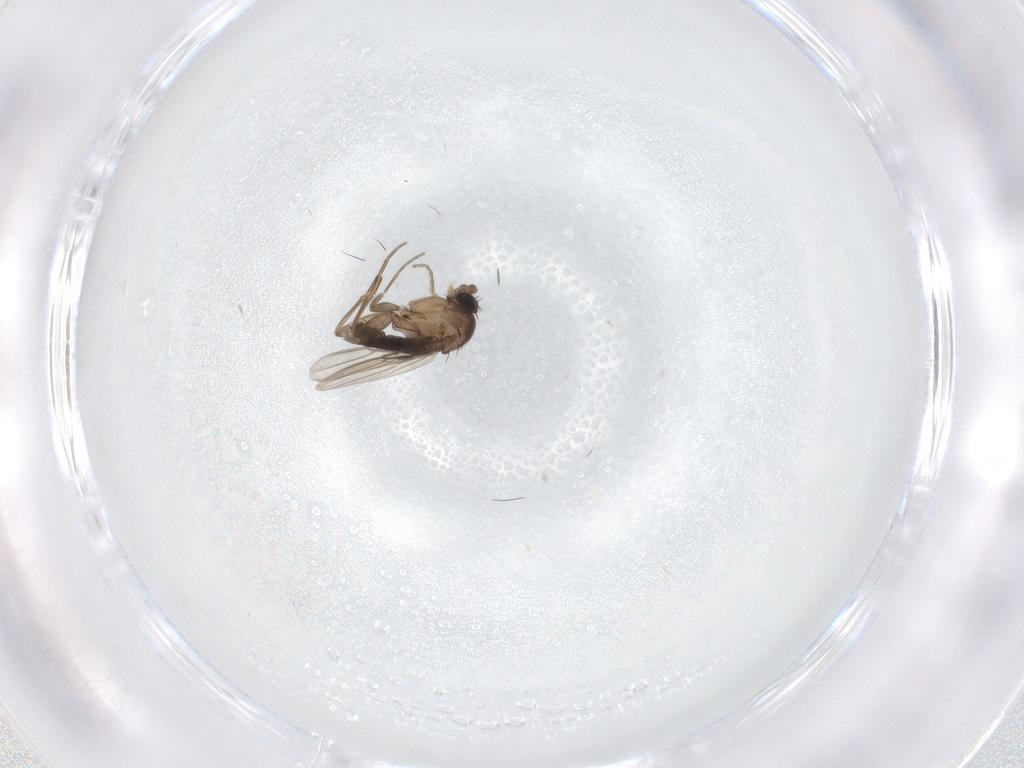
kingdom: Animalia
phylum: Arthropoda
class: Insecta
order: Diptera
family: Phoridae
